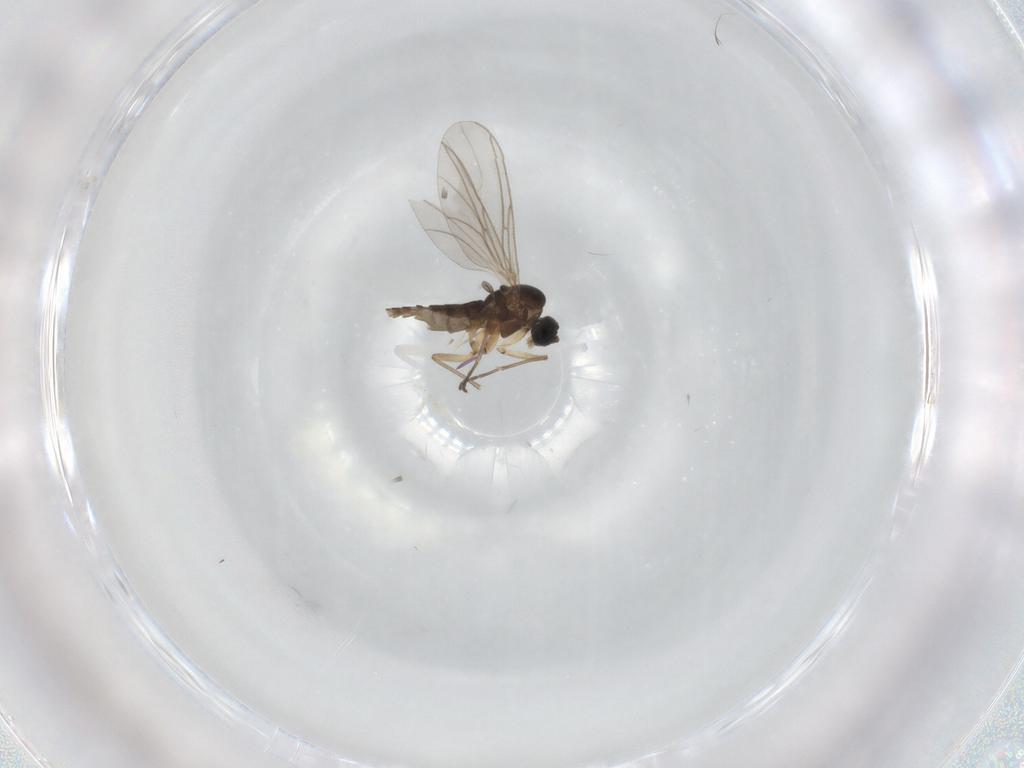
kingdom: Animalia
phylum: Arthropoda
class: Insecta
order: Diptera
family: Sciaridae
